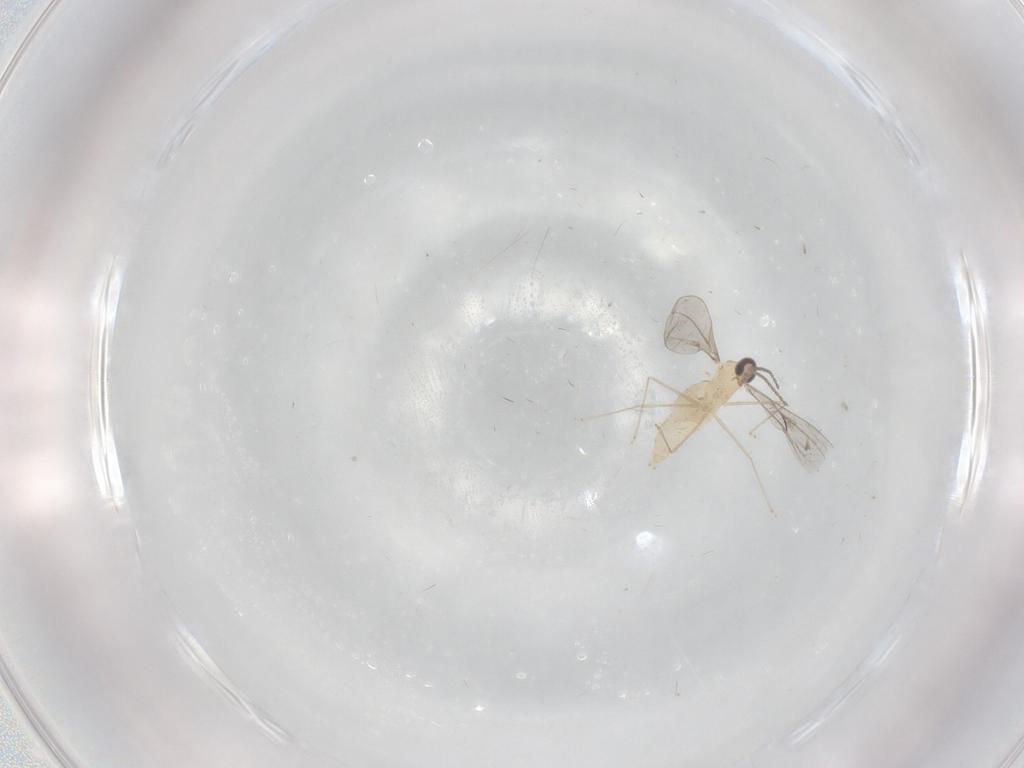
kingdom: Animalia
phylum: Arthropoda
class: Insecta
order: Diptera
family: Cecidomyiidae
